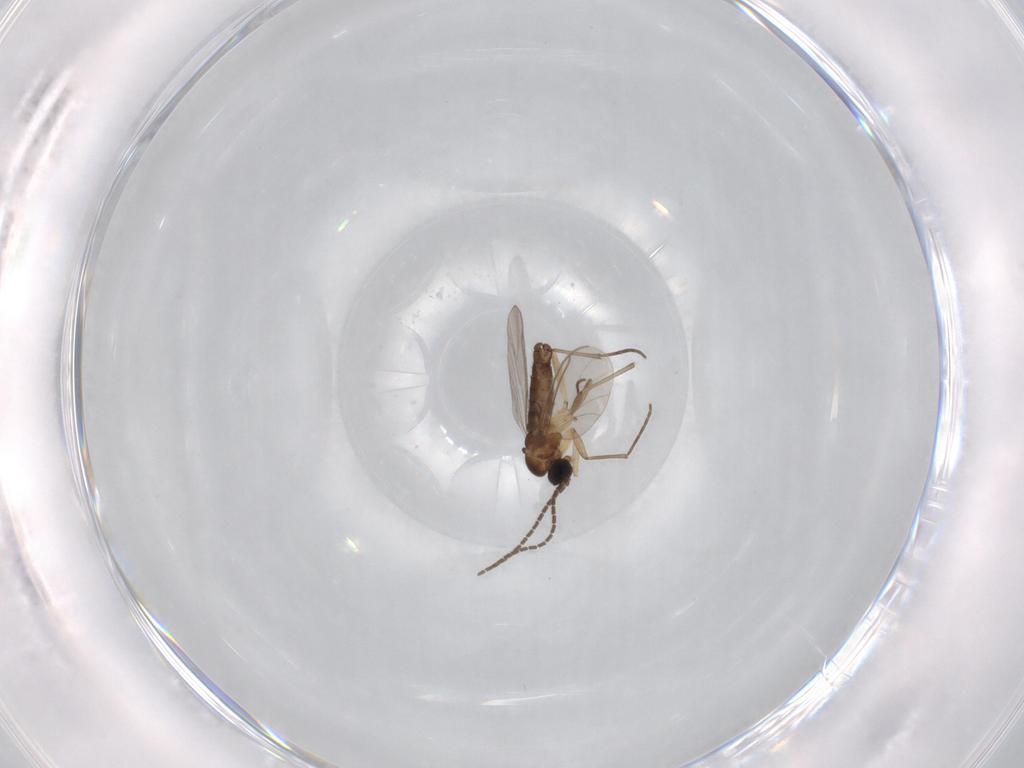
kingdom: Animalia
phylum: Arthropoda
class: Insecta
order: Diptera
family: Sciaridae
